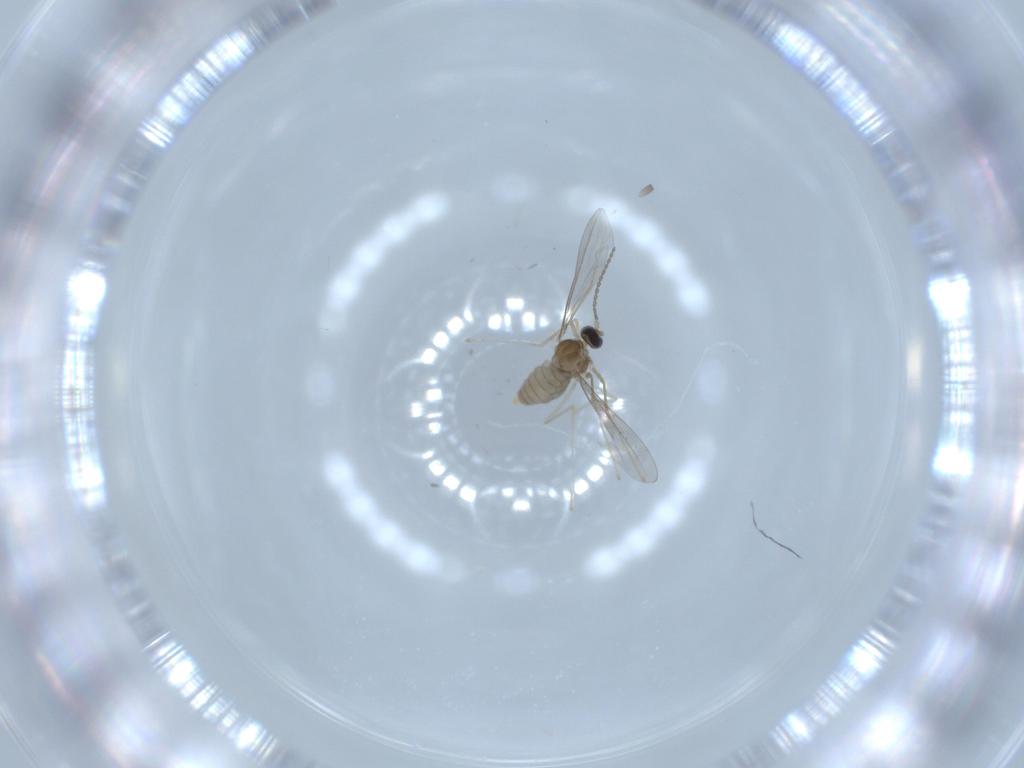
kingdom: Animalia
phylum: Arthropoda
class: Insecta
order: Diptera
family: Cecidomyiidae
